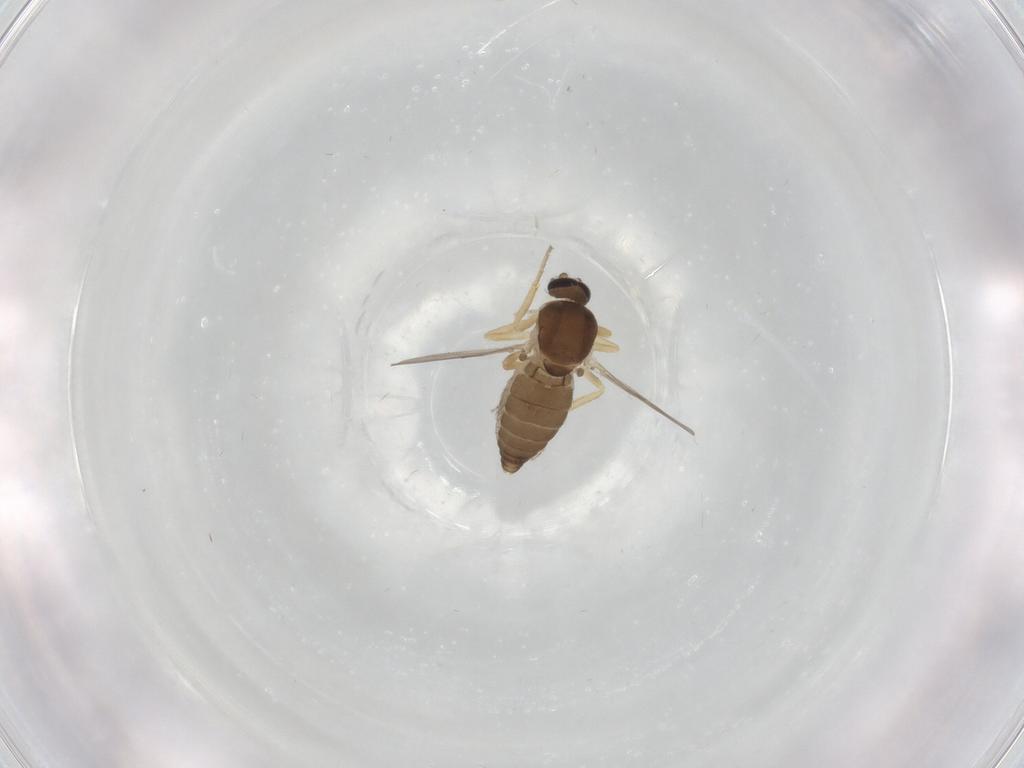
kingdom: Animalia
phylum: Arthropoda
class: Insecta
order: Diptera
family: Ceratopogonidae
